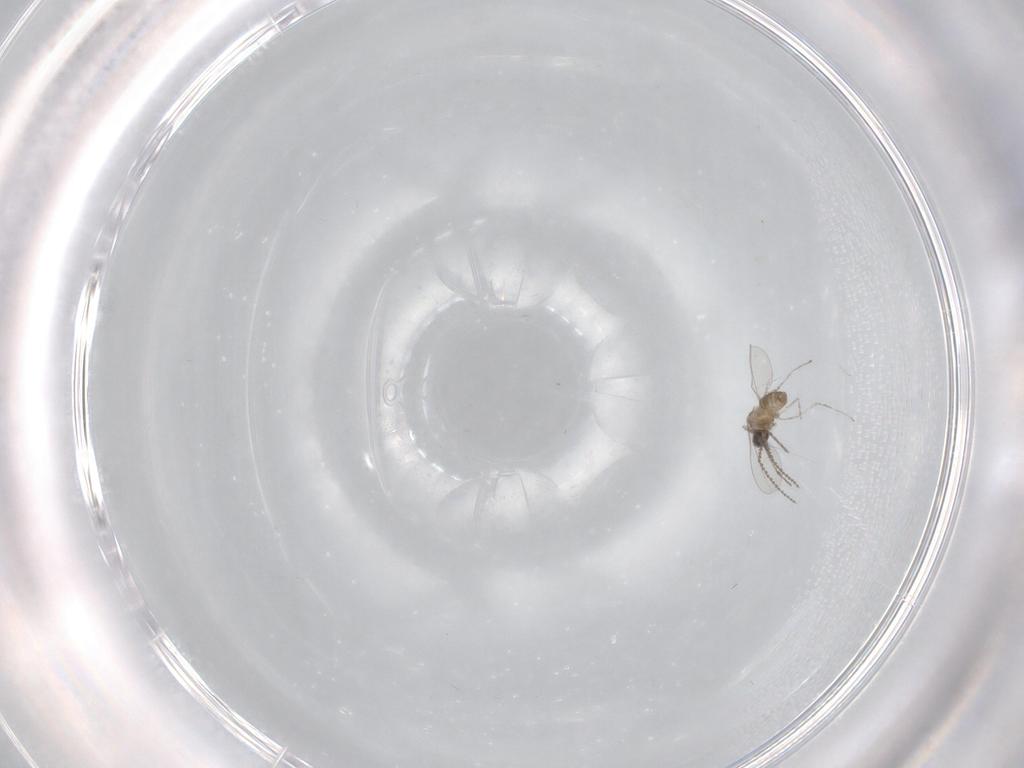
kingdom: Animalia
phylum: Arthropoda
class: Insecta
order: Diptera
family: Cecidomyiidae
